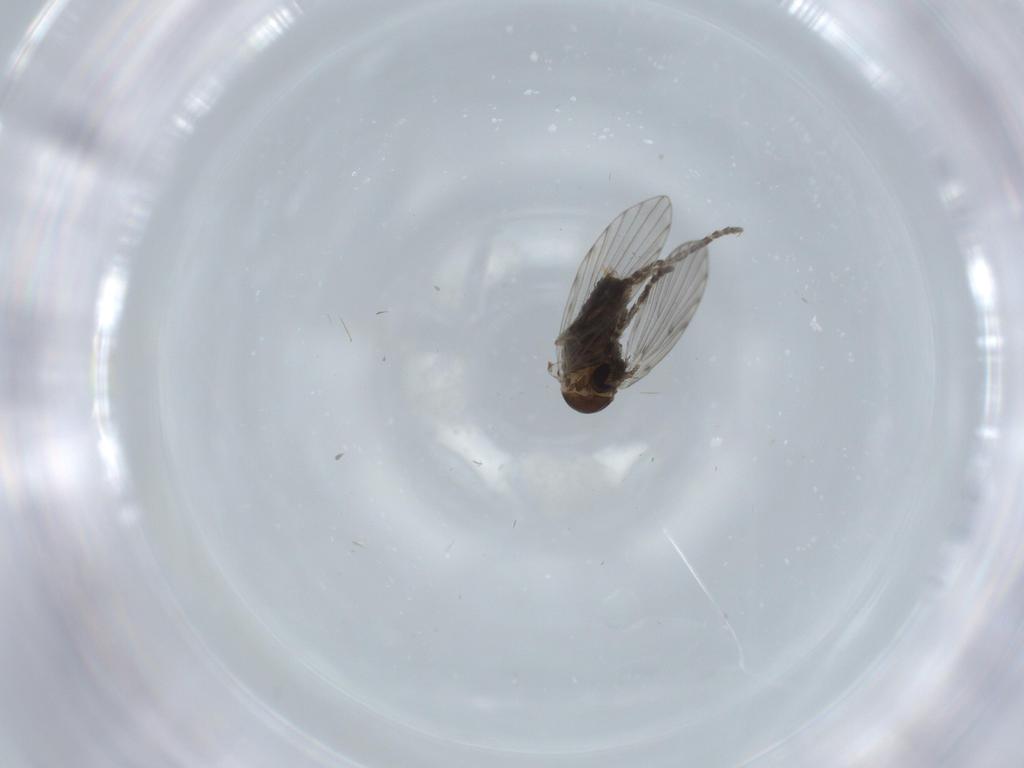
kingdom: Animalia
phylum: Arthropoda
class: Insecta
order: Diptera
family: Psychodidae
